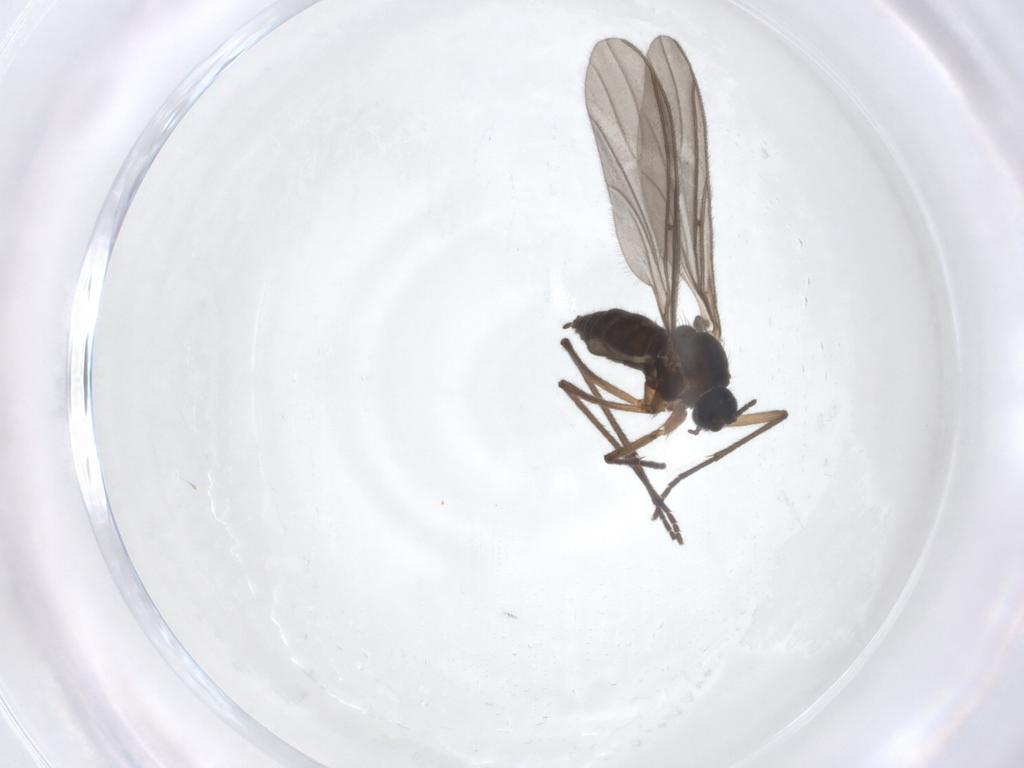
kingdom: Animalia
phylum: Arthropoda
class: Insecta
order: Diptera
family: Sciaridae
